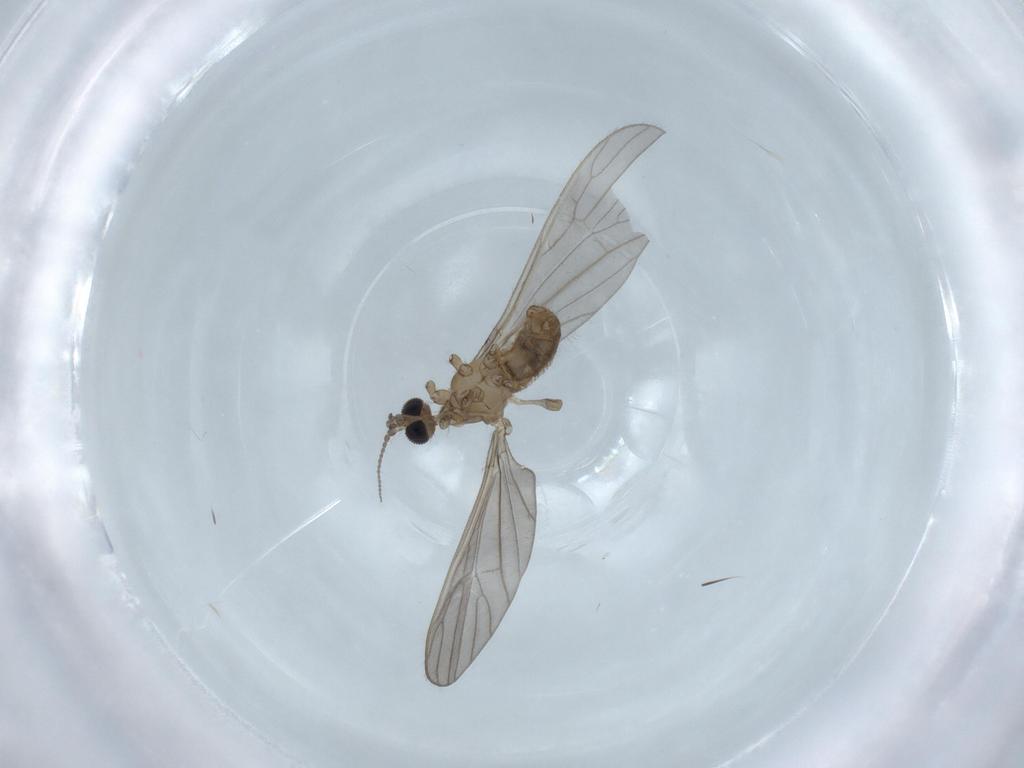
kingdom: Animalia
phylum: Arthropoda
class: Insecta
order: Diptera
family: Limoniidae
